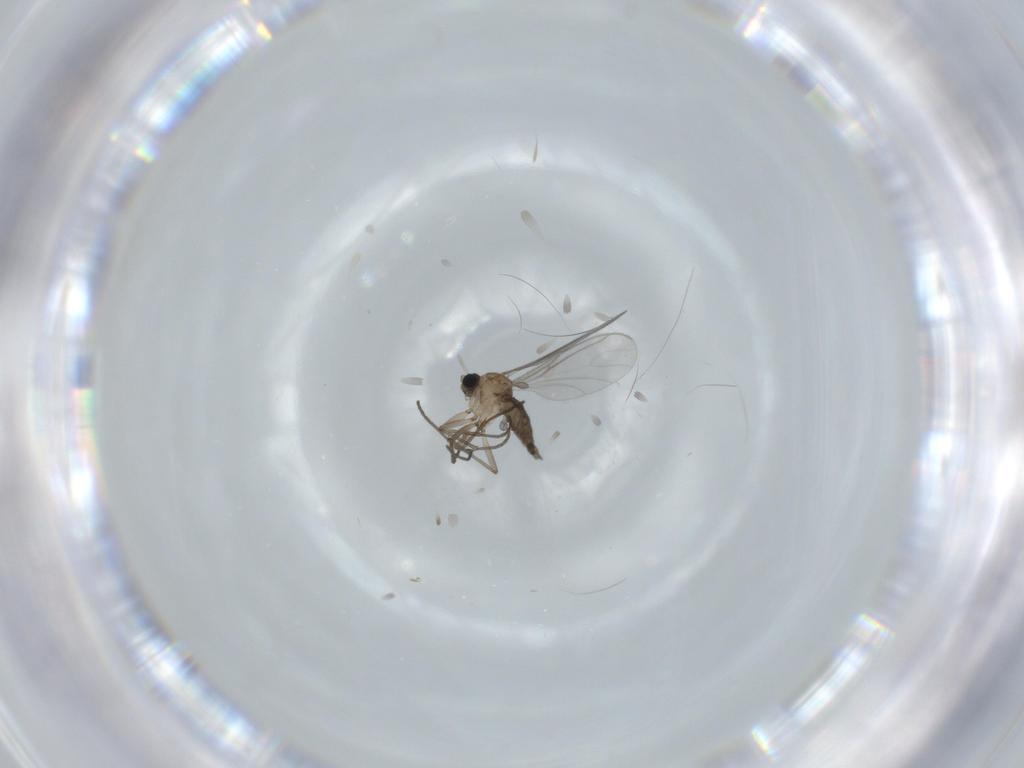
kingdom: Animalia
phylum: Arthropoda
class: Insecta
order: Diptera
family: Sciaridae
